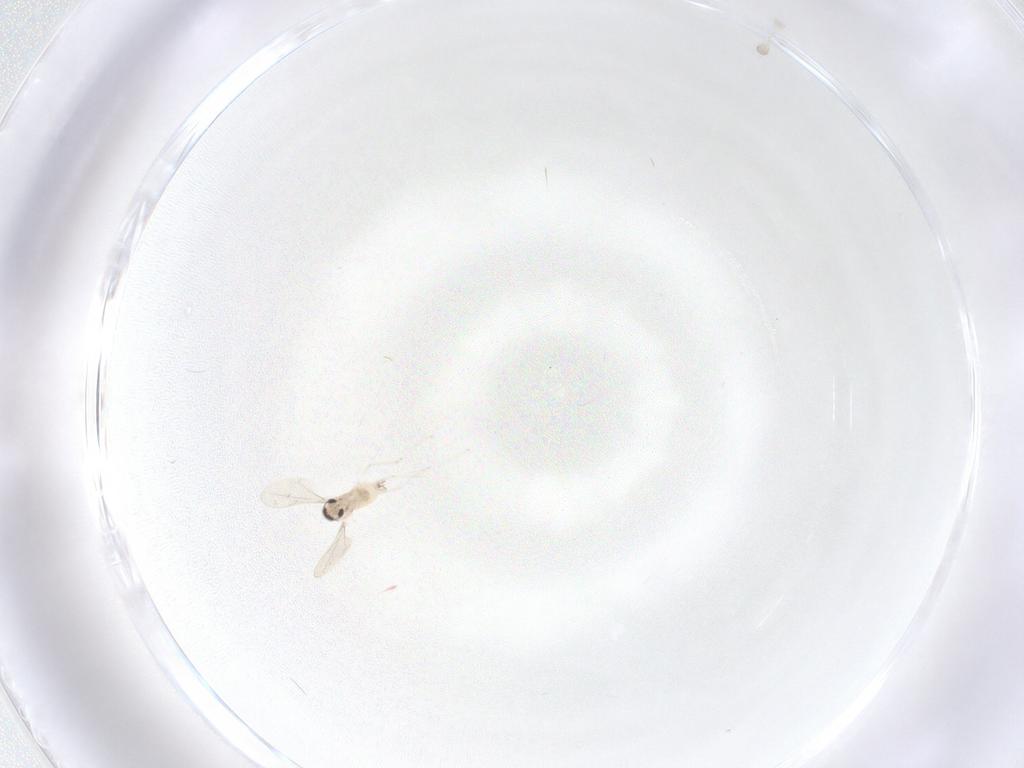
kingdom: Animalia
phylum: Arthropoda
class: Insecta
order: Diptera
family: Cecidomyiidae
